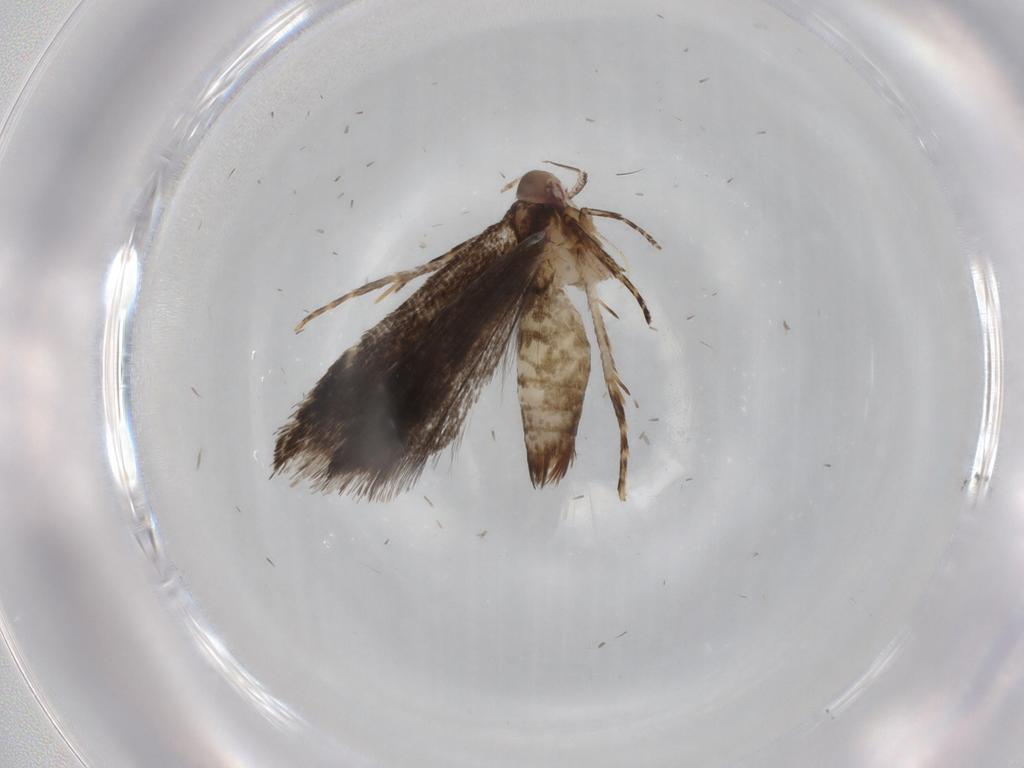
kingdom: Animalia
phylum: Arthropoda
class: Insecta
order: Lepidoptera
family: Gelechiidae
